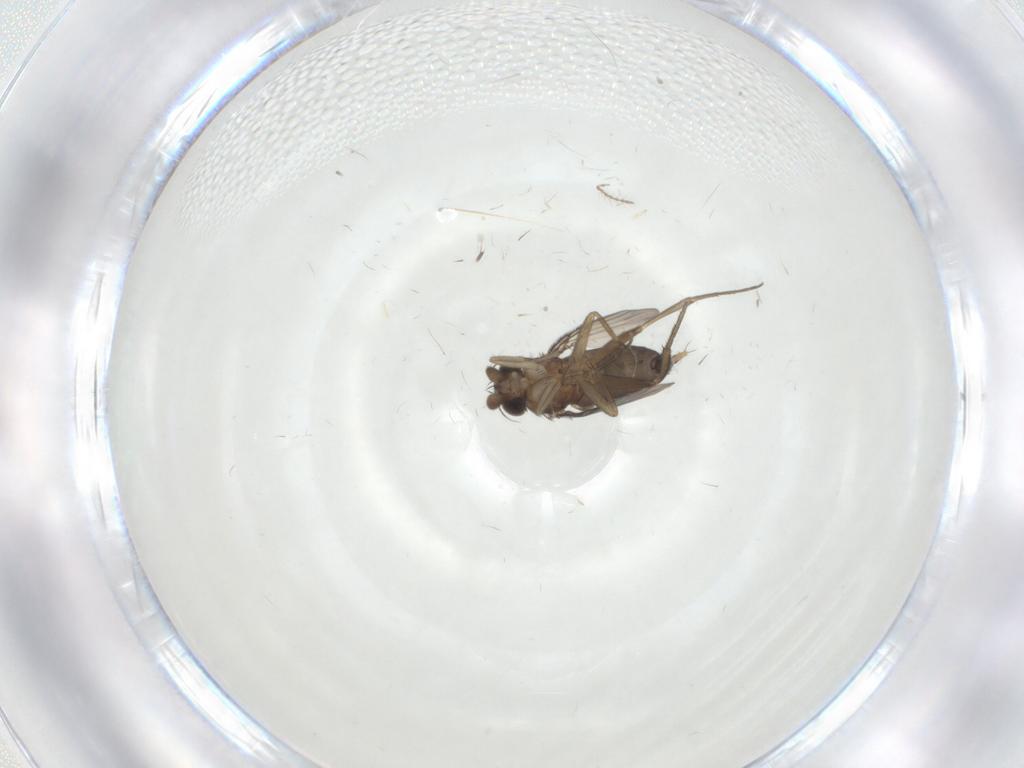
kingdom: Animalia
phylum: Arthropoda
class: Insecta
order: Diptera
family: Phoridae
